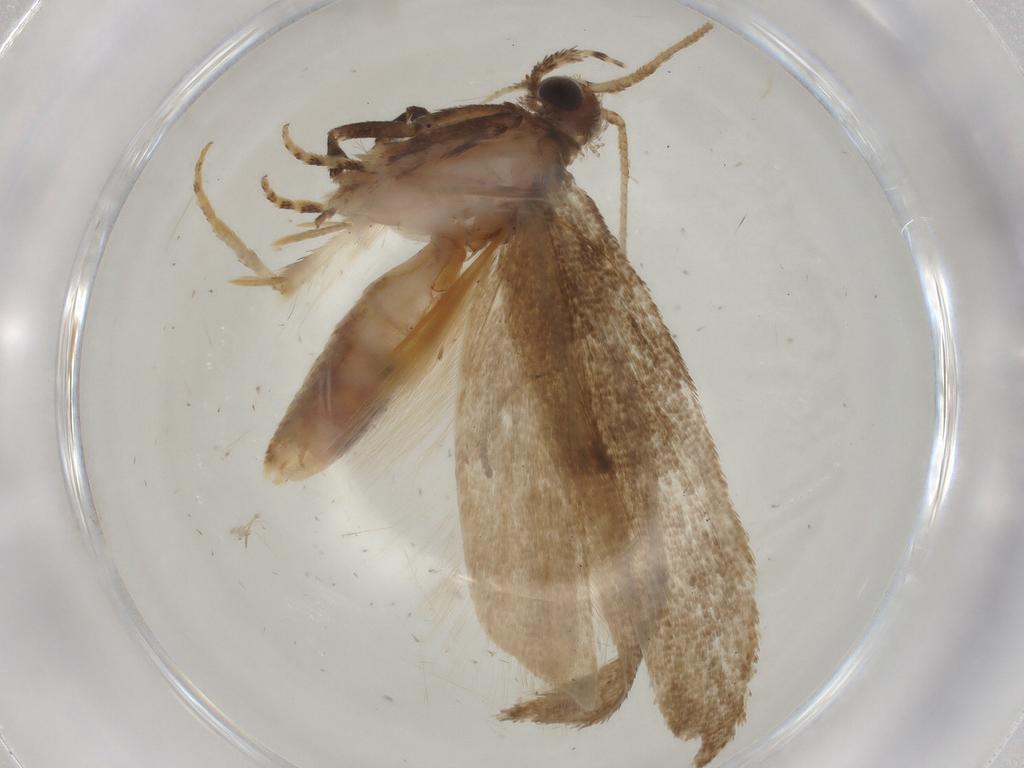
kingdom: Animalia
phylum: Arthropoda
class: Insecta
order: Lepidoptera
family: Gelechiidae
